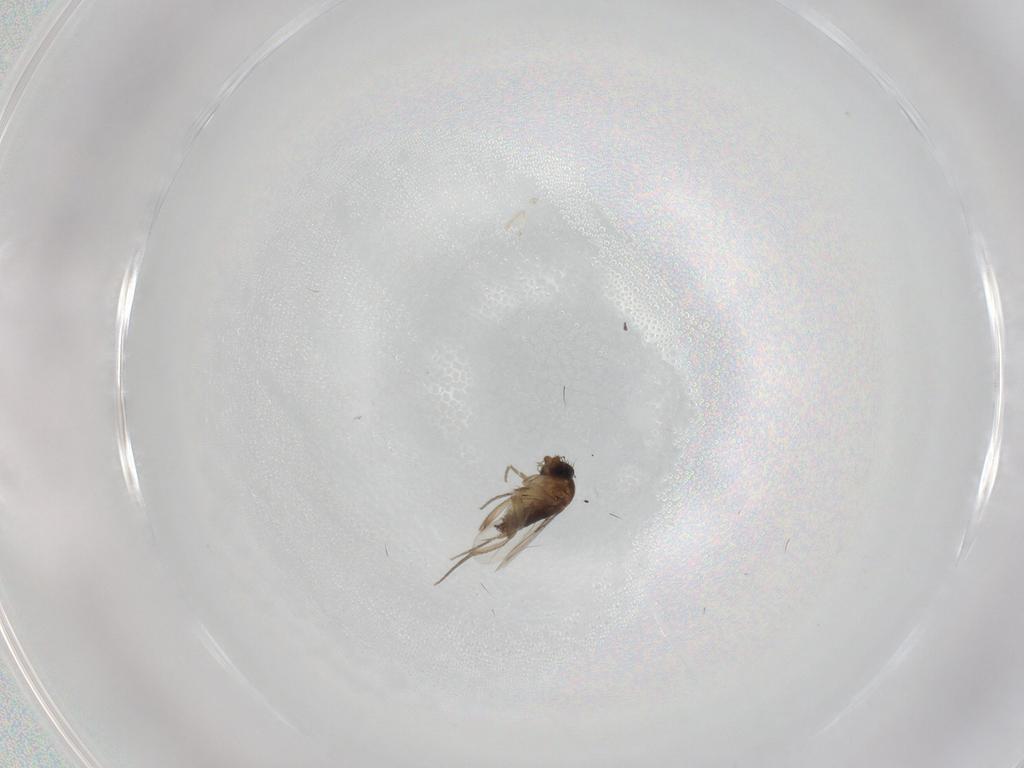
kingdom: Animalia
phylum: Arthropoda
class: Insecta
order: Diptera
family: Phoridae
